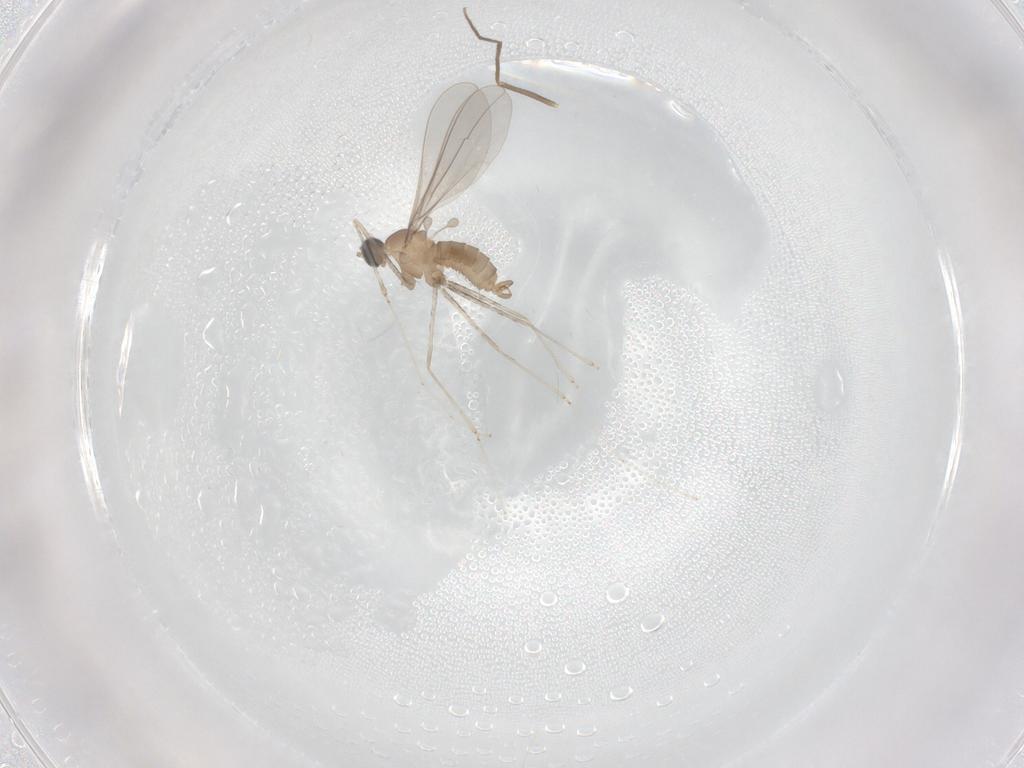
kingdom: Animalia
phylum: Arthropoda
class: Insecta
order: Diptera
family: Cecidomyiidae
